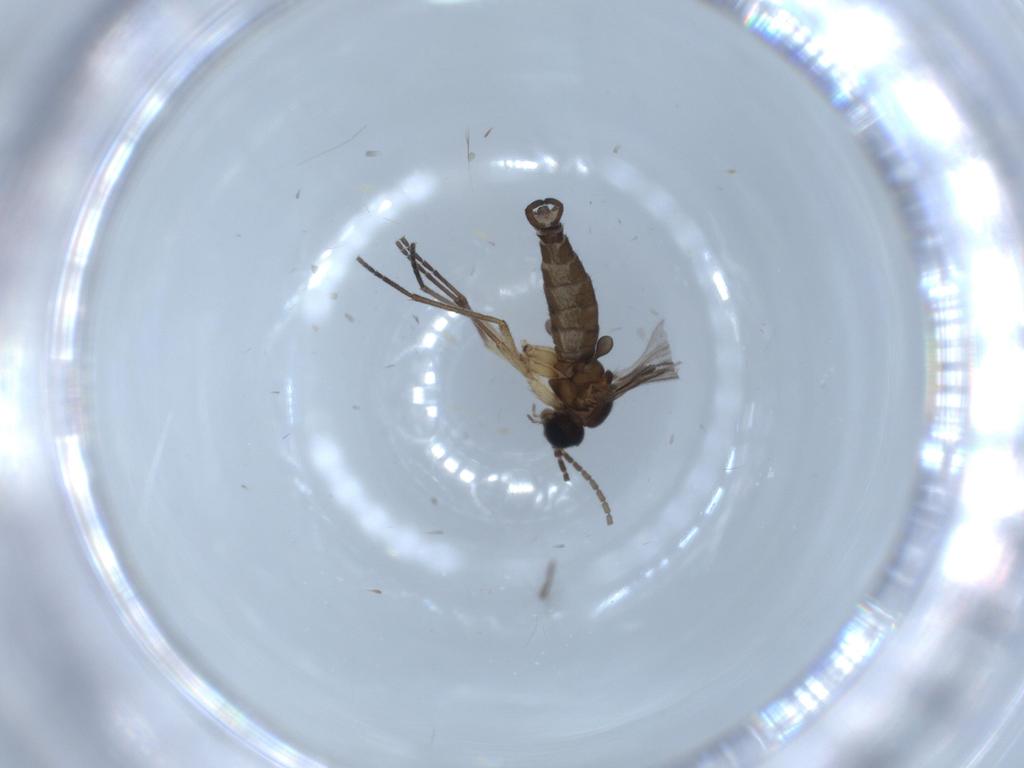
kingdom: Animalia
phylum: Arthropoda
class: Insecta
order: Diptera
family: Sciaridae
